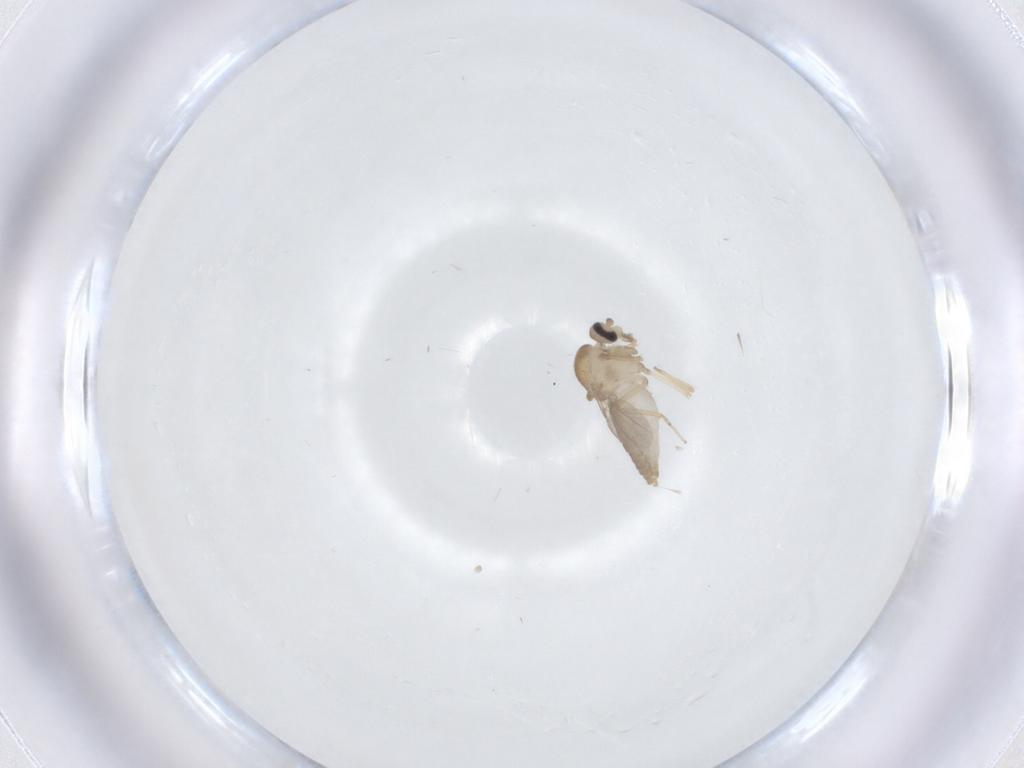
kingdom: Animalia
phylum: Arthropoda
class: Insecta
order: Diptera
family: Ceratopogonidae
